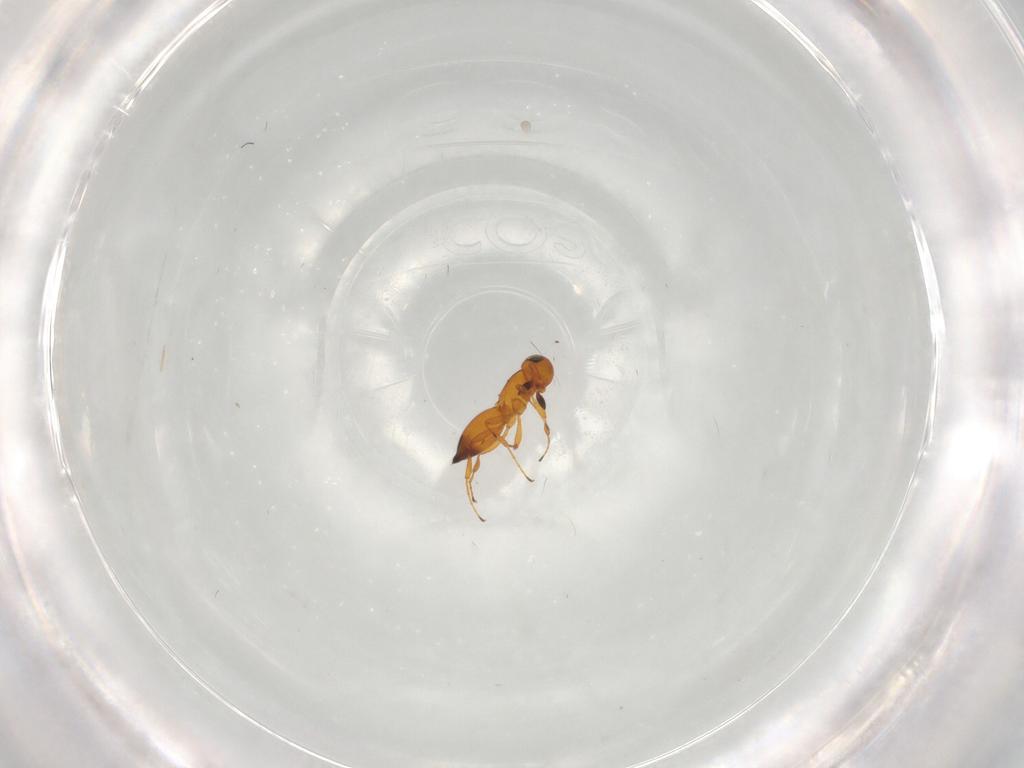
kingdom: Animalia
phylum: Arthropoda
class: Insecta
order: Hymenoptera
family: Platygastridae
